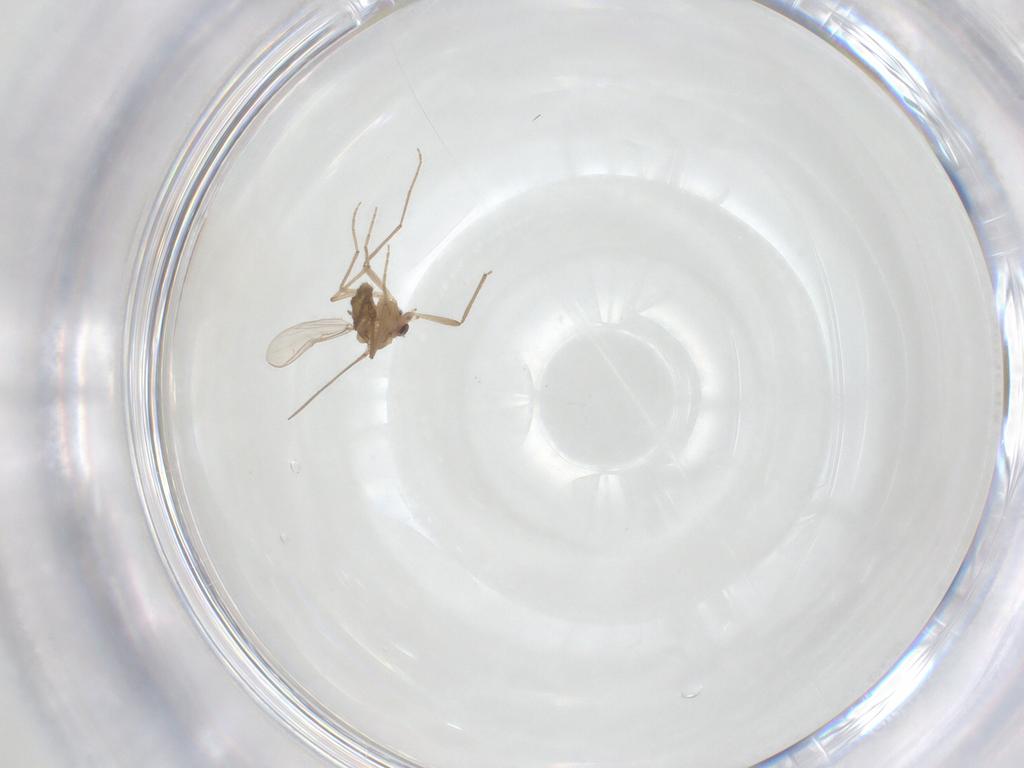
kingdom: Animalia
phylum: Arthropoda
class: Insecta
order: Diptera
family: Chironomidae
